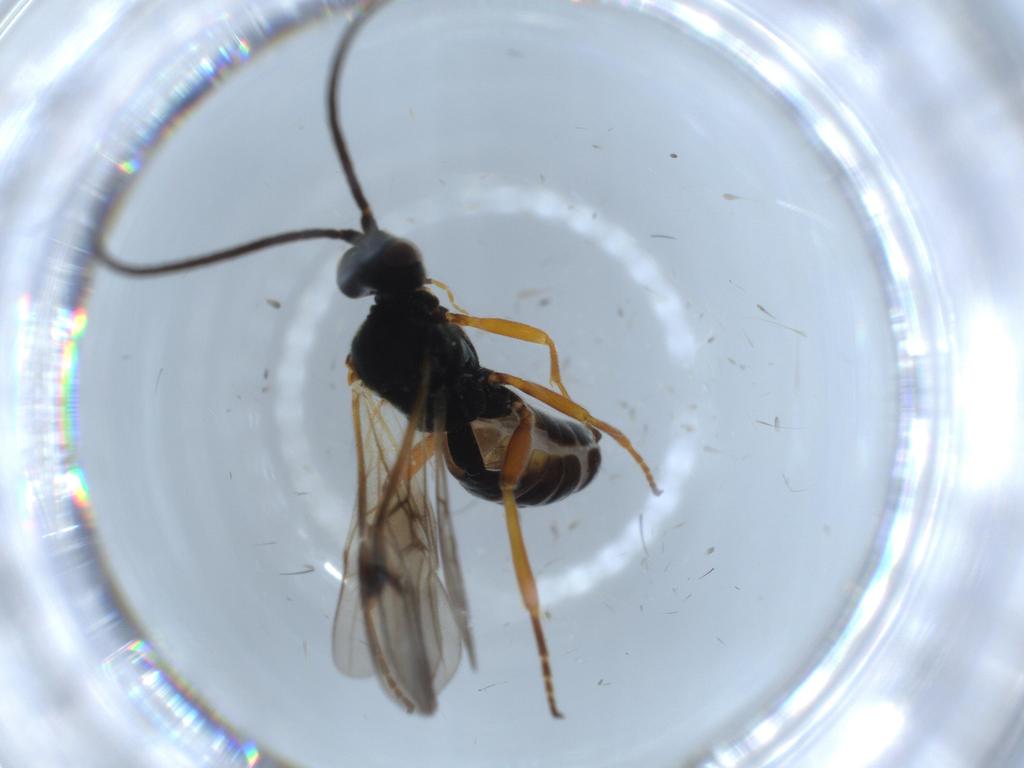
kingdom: Animalia
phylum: Arthropoda
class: Insecta
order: Hymenoptera
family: Braconidae
